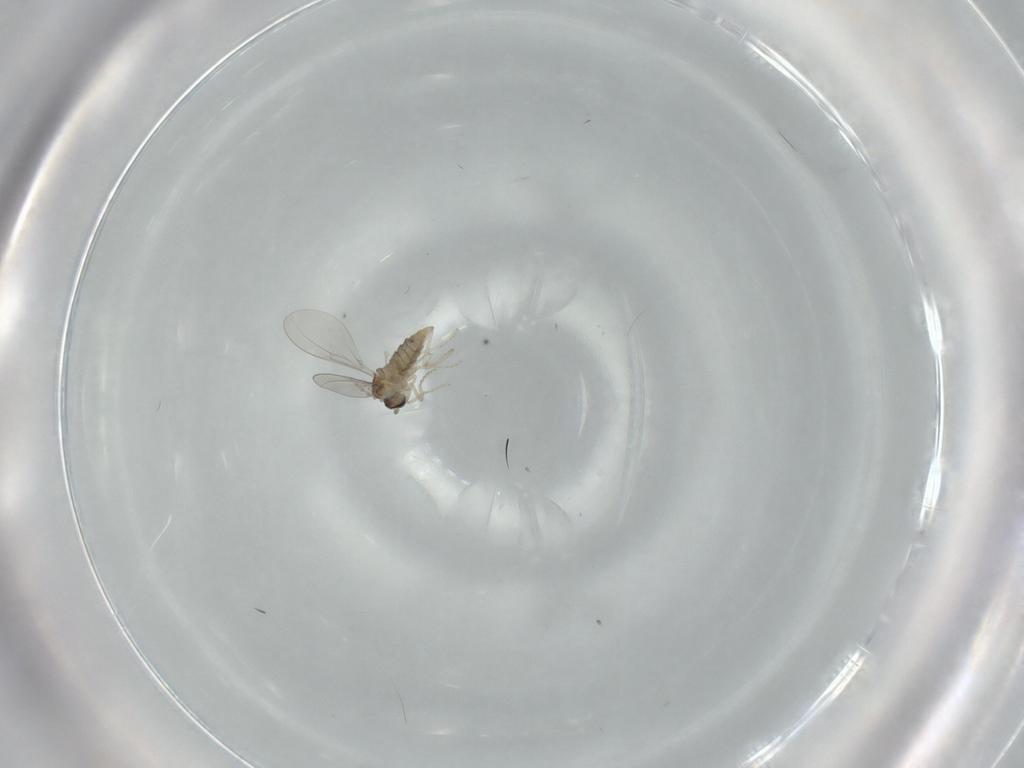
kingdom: Animalia
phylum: Arthropoda
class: Insecta
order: Diptera
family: Cecidomyiidae
